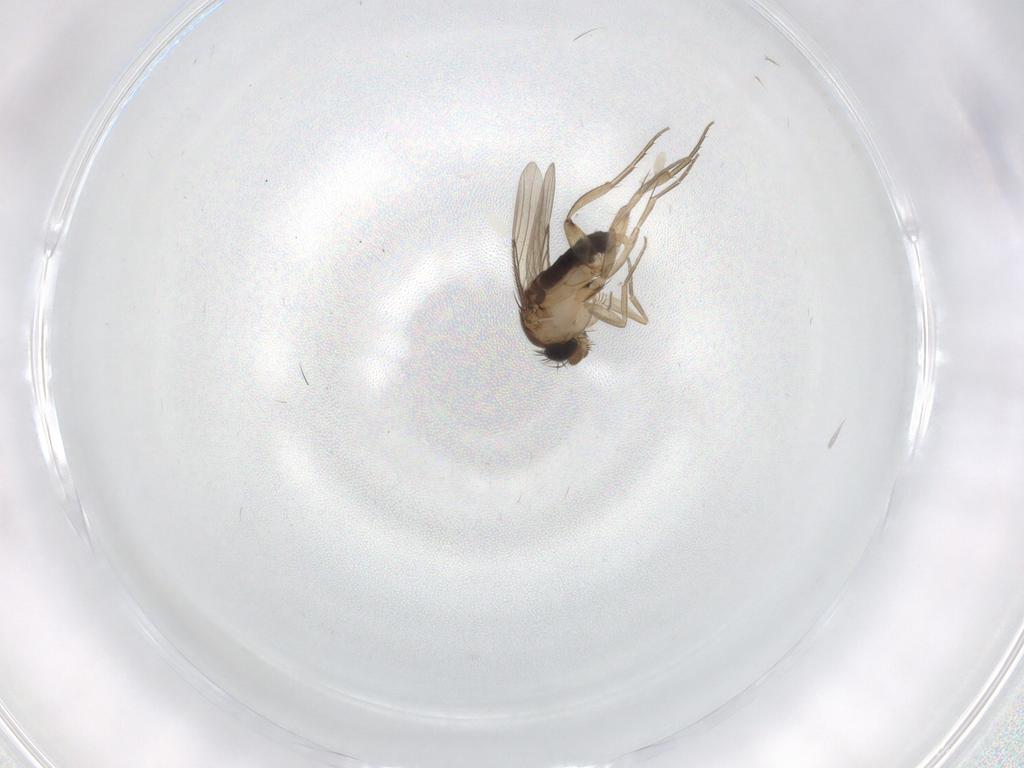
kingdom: Animalia
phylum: Arthropoda
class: Insecta
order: Diptera
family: Cecidomyiidae
